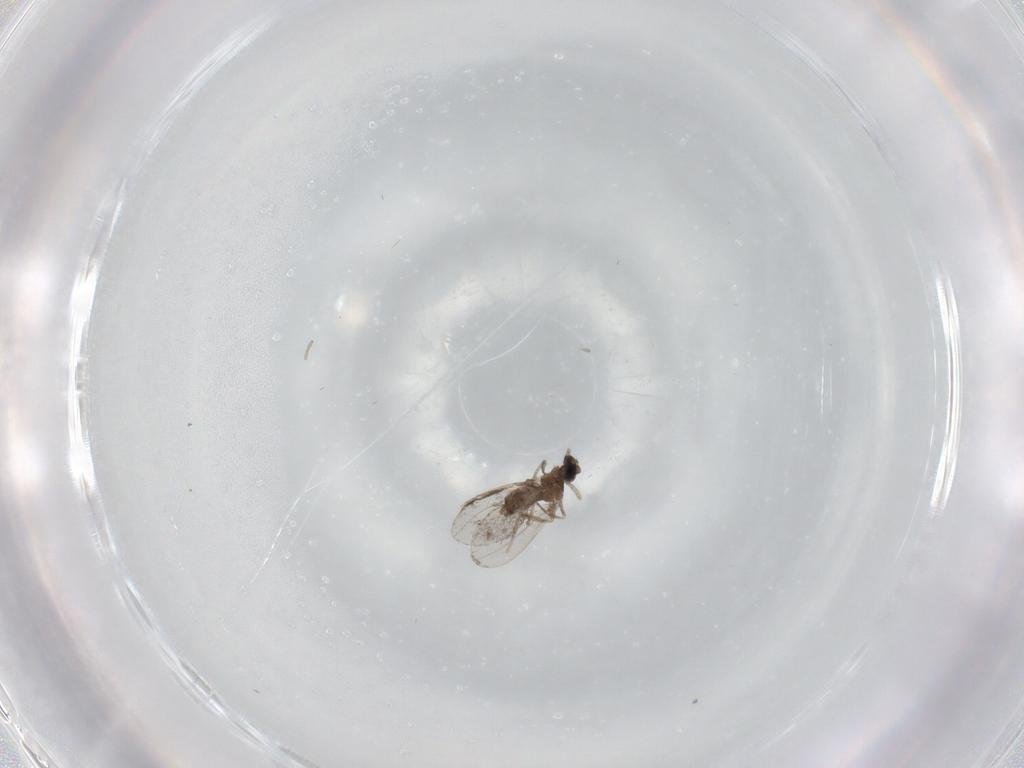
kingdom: Animalia
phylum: Arthropoda
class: Insecta
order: Diptera
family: Cecidomyiidae
